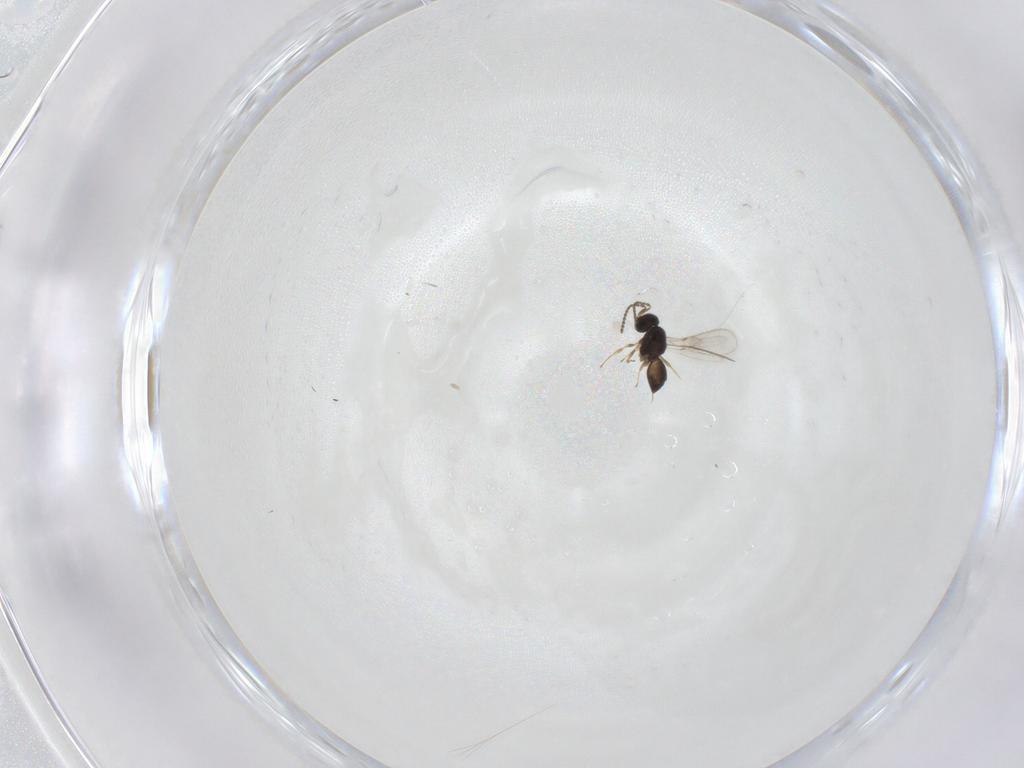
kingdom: Animalia
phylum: Arthropoda
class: Insecta
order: Hymenoptera
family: Scelionidae
